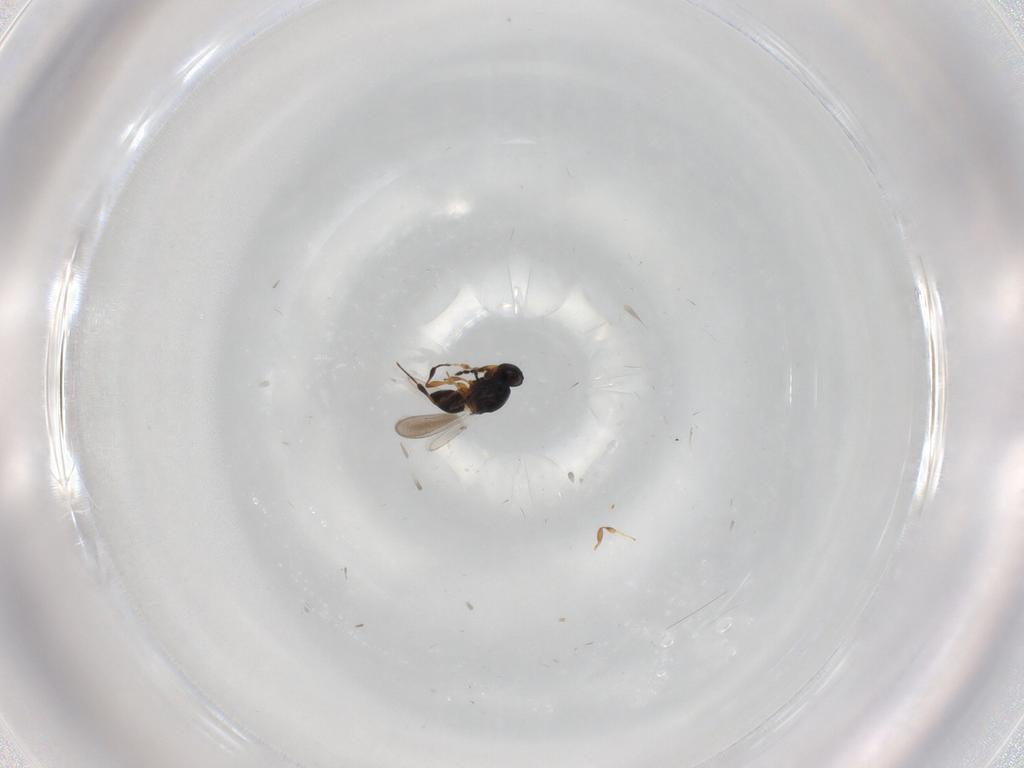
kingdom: Animalia
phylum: Arthropoda
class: Insecta
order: Hymenoptera
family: Platygastridae
